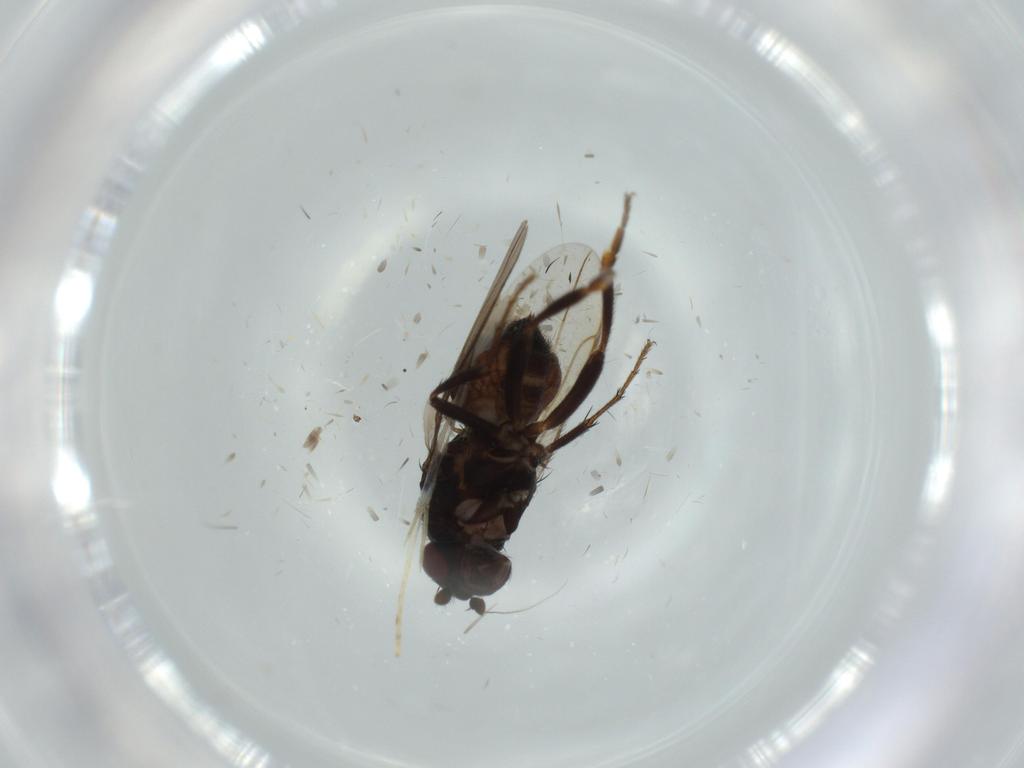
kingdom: Animalia
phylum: Arthropoda
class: Insecta
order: Diptera
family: Sphaeroceridae
